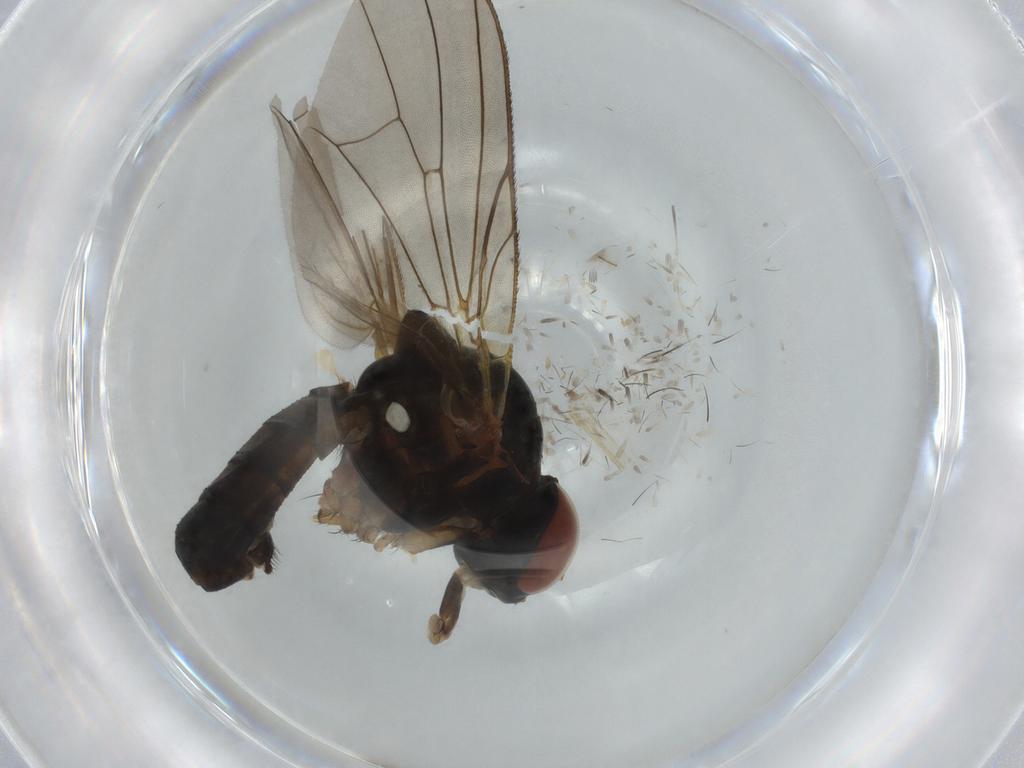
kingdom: Animalia
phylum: Arthropoda
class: Insecta
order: Diptera
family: Anthomyiidae
